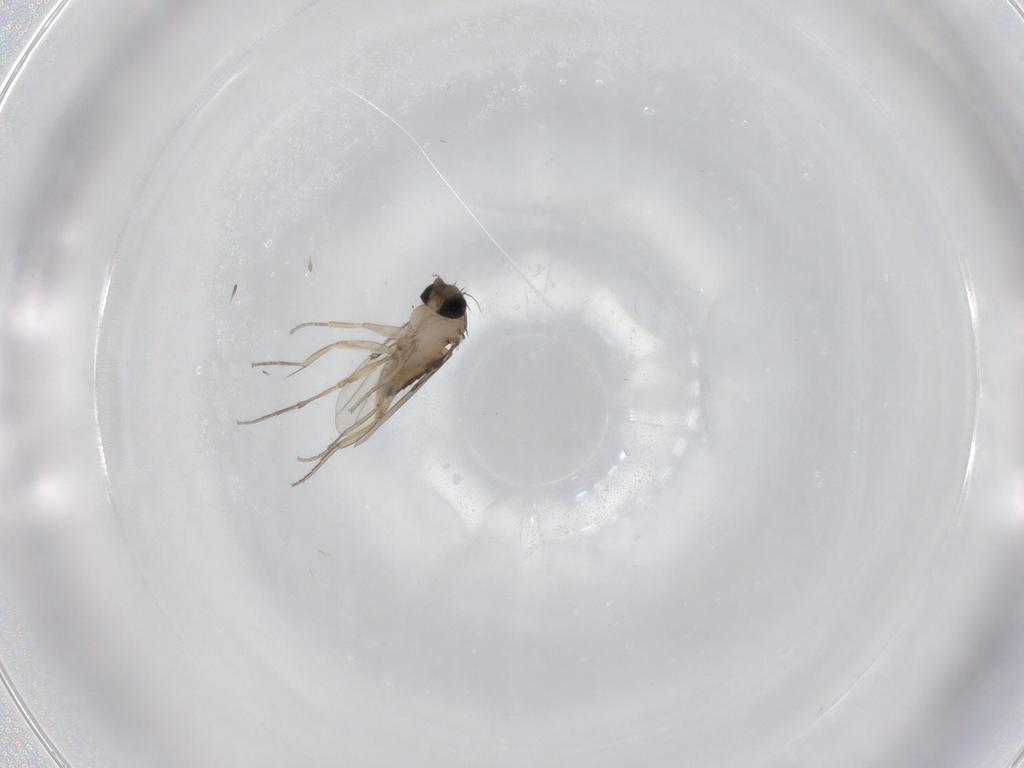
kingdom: Animalia
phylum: Arthropoda
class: Insecta
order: Diptera
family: Phoridae
